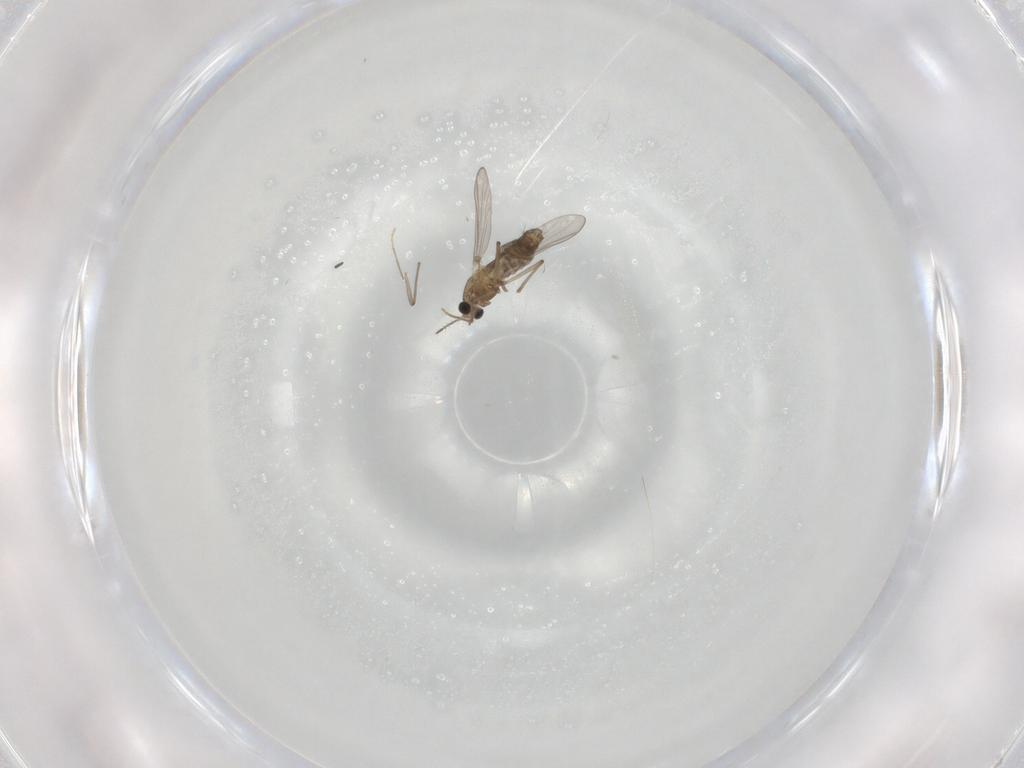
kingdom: Animalia
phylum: Arthropoda
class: Insecta
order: Diptera
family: Chironomidae
